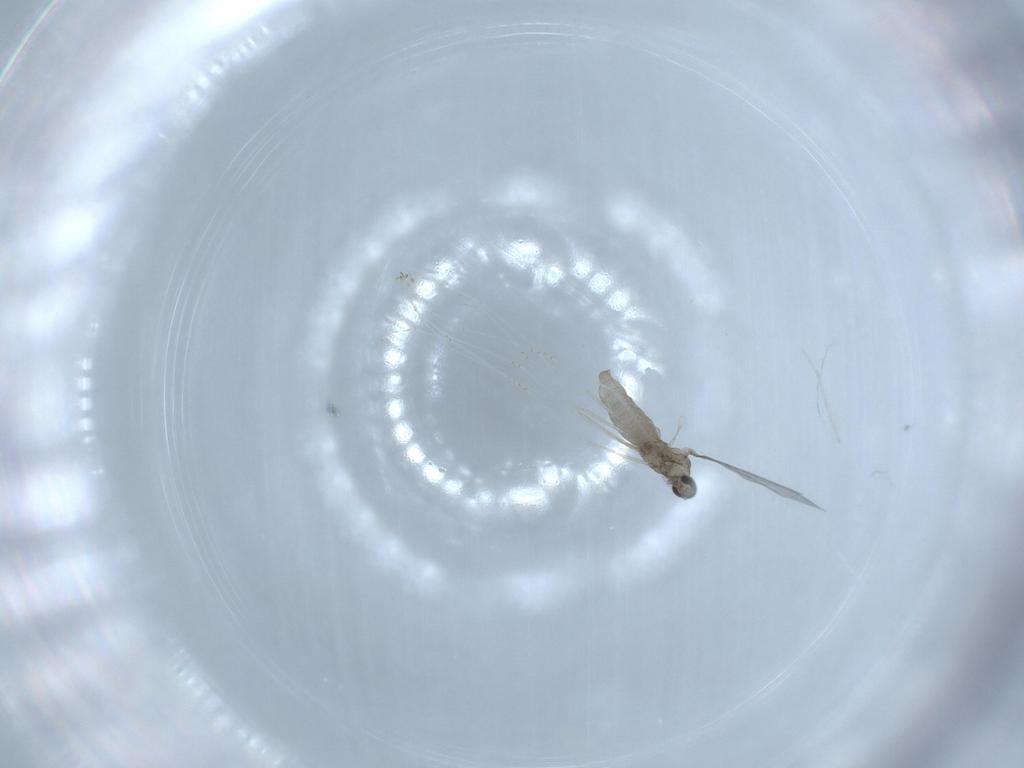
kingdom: Animalia
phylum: Arthropoda
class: Insecta
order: Diptera
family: Cecidomyiidae
